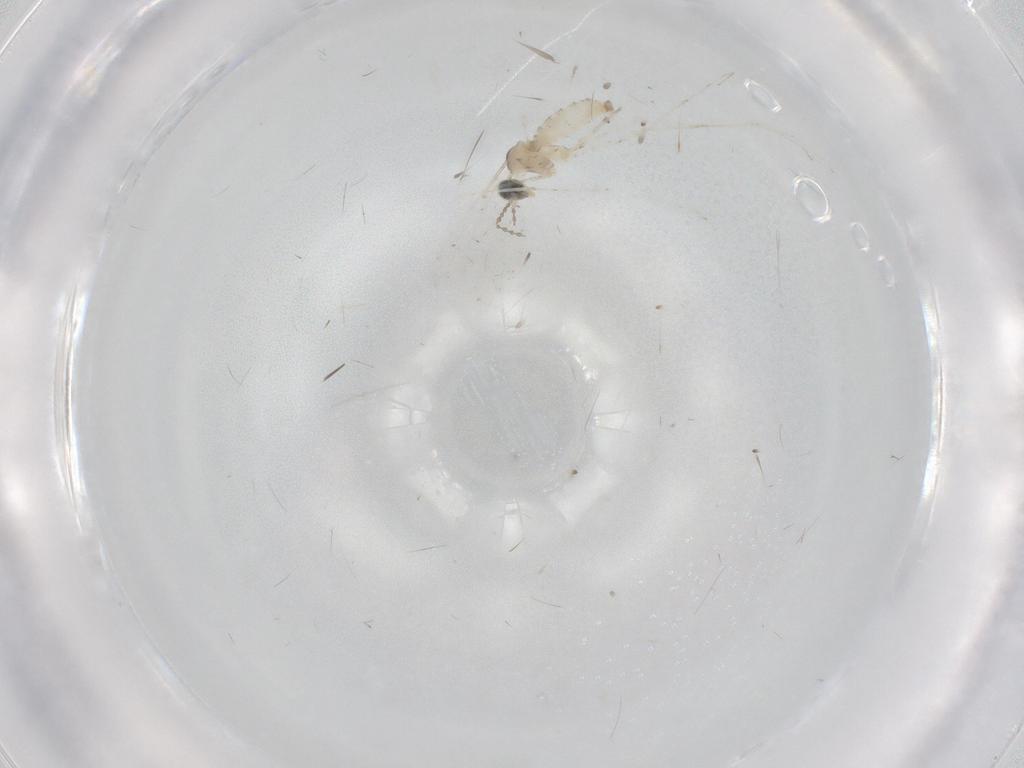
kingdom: Animalia
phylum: Arthropoda
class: Insecta
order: Diptera
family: Cecidomyiidae
